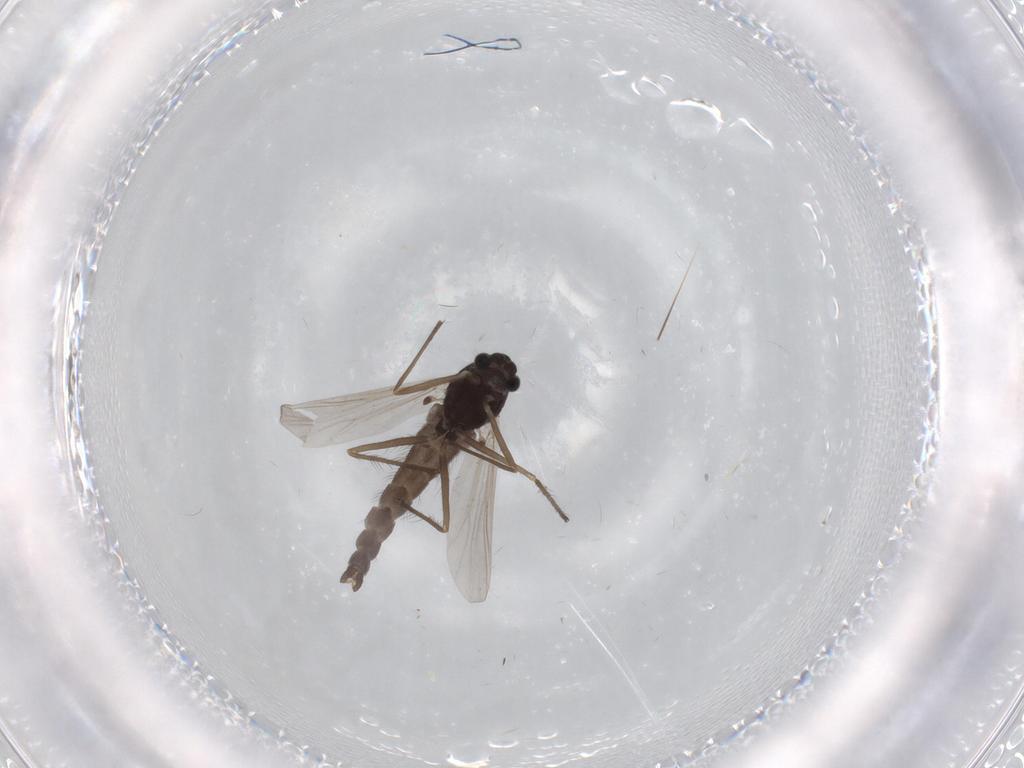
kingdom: Animalia
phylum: Arthropoda
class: Insecta
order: Diptera
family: Chironomidae
